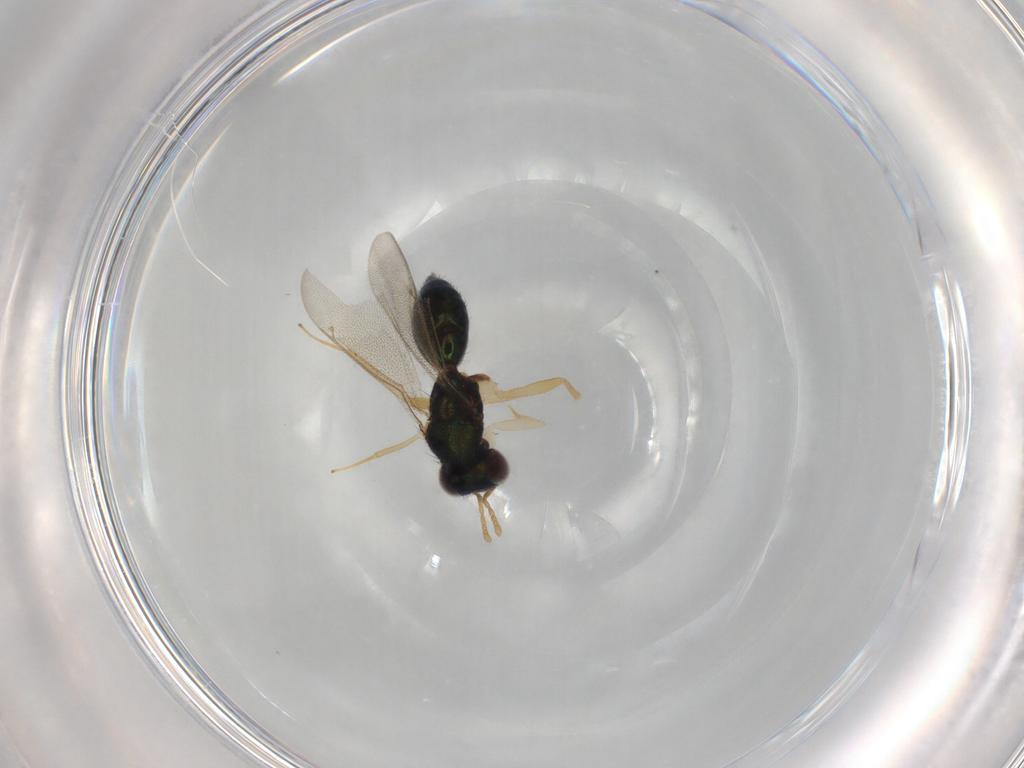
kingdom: Animalia
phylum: Arthropoda
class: Insecta
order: Hymenoptera
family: Eulophidae
